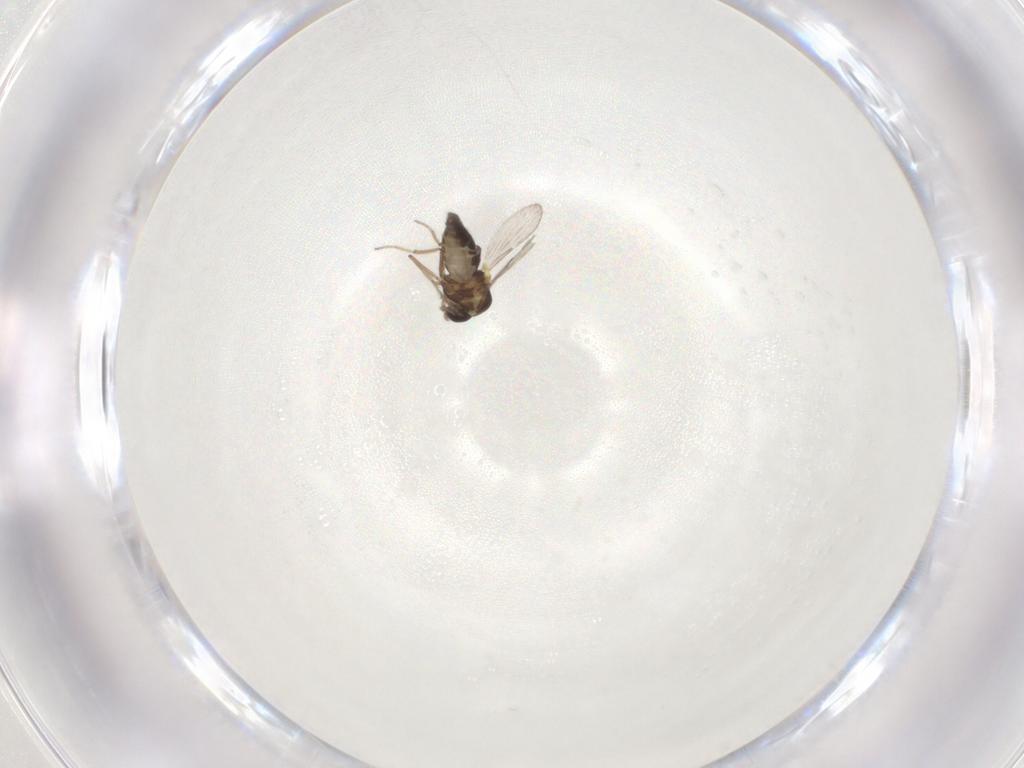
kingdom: Animalia
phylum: Arthropoda
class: Insecta
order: Diptera
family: Ceratopogonidae
